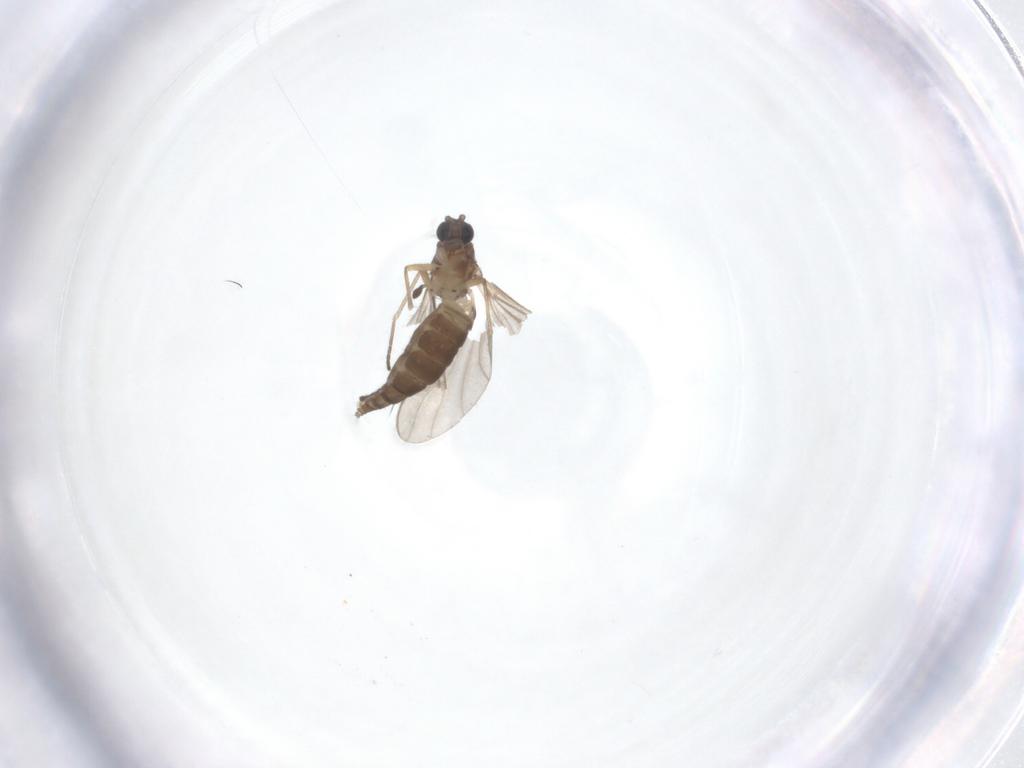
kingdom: Animalia
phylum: Arthropoda
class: Insecta
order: Diptera
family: Sciaridae
